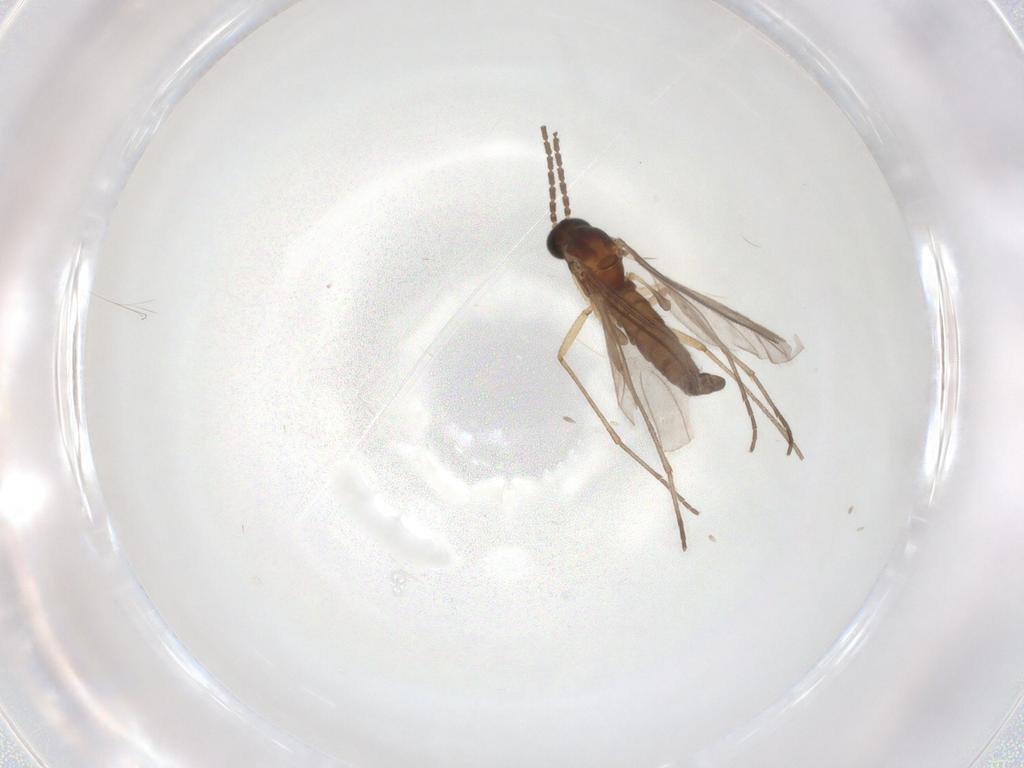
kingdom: Animalia
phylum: Arthropoda
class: Insecta
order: Diptera
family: Sciaridae
